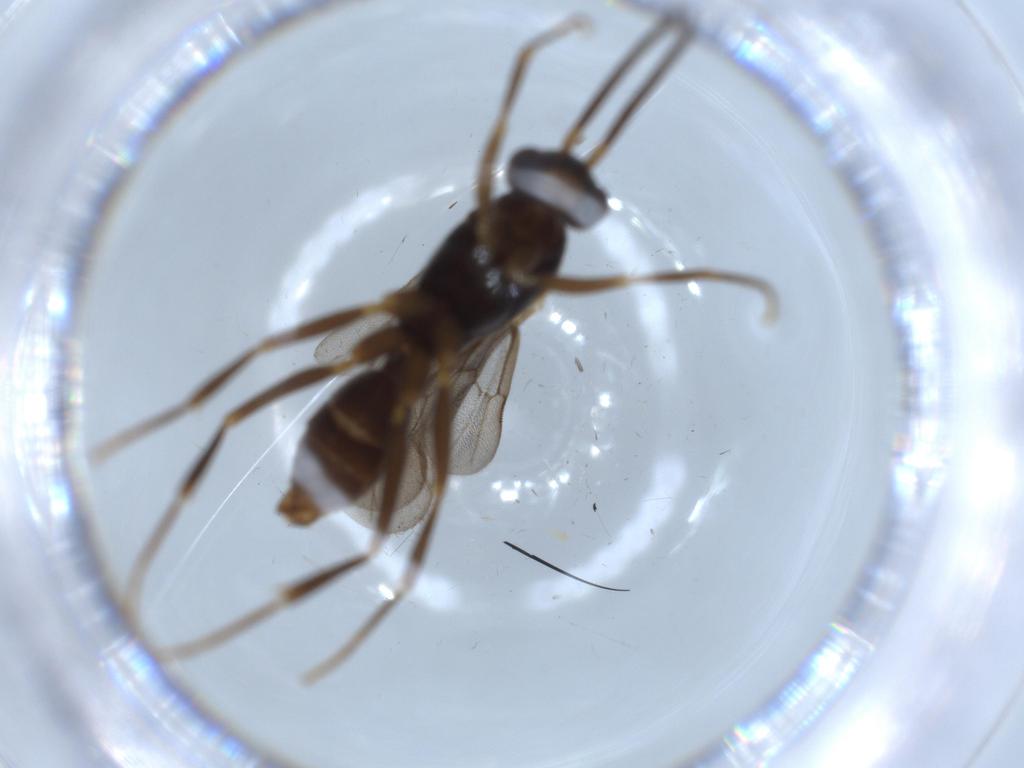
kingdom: Animalia
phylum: Arthropoda
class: Insecta
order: Hymenoptera
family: Formicidae
